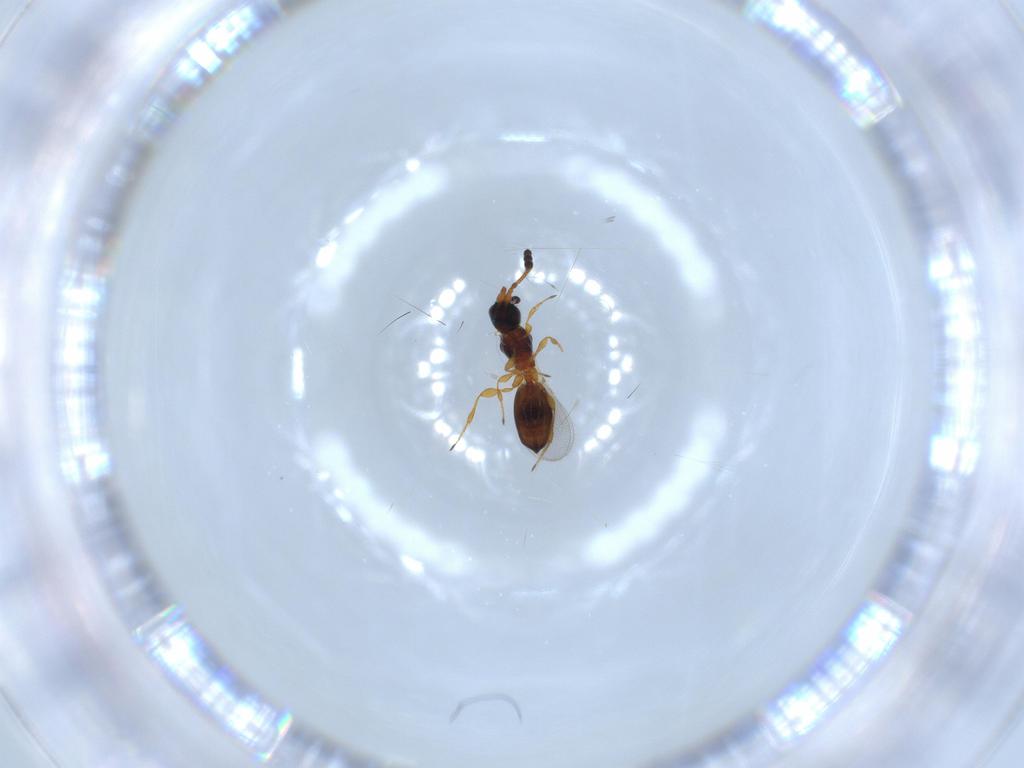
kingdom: Animalia
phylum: Arthropoda
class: Insecta
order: Hymenoptera
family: Diapriidae
